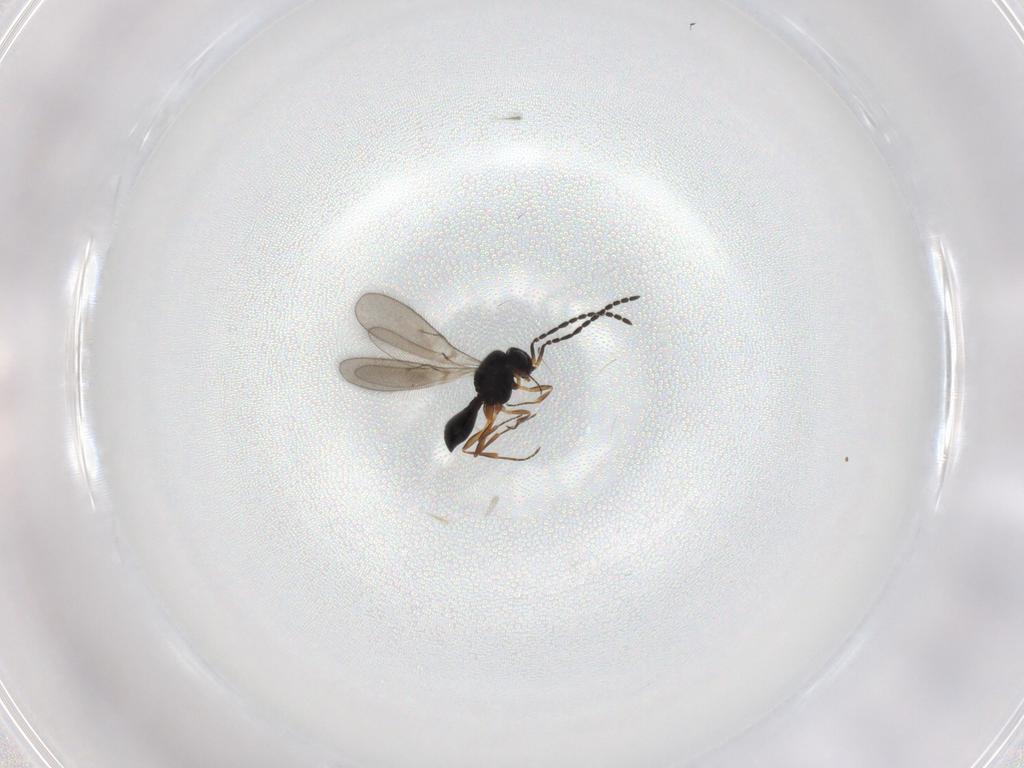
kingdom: Animalia
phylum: Arthropoda
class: Insecta
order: Hymenoptera
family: Scelionidae
